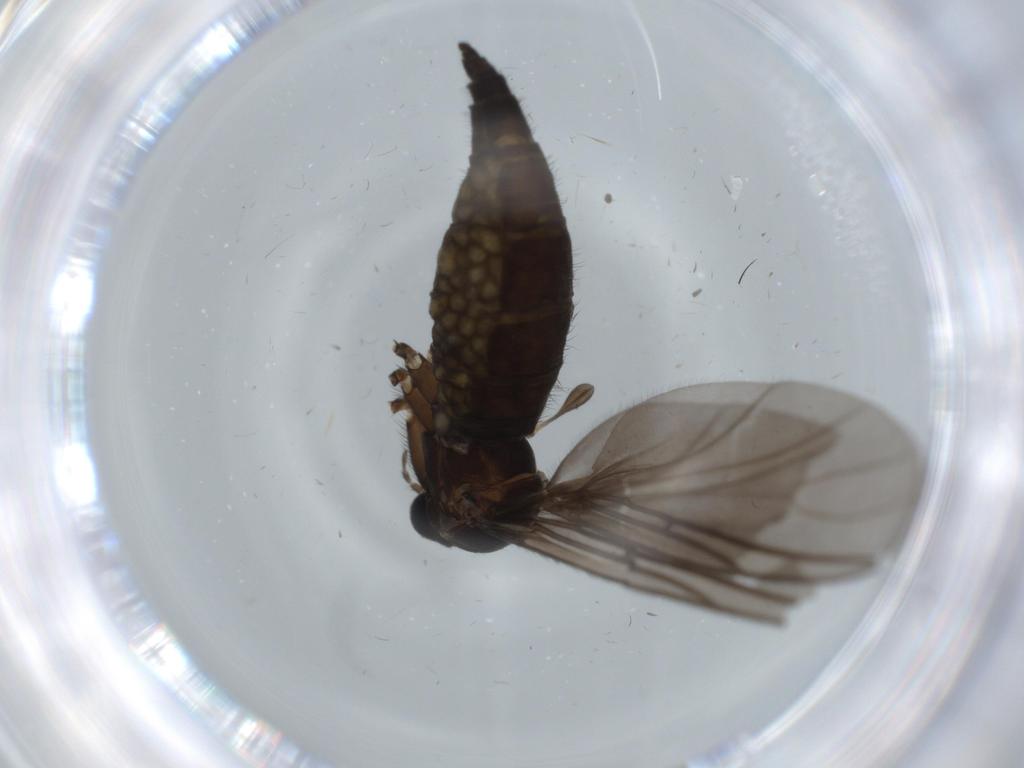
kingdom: Animalia
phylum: Arthropoda
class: Insecta
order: Diptera
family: Sciaridae
